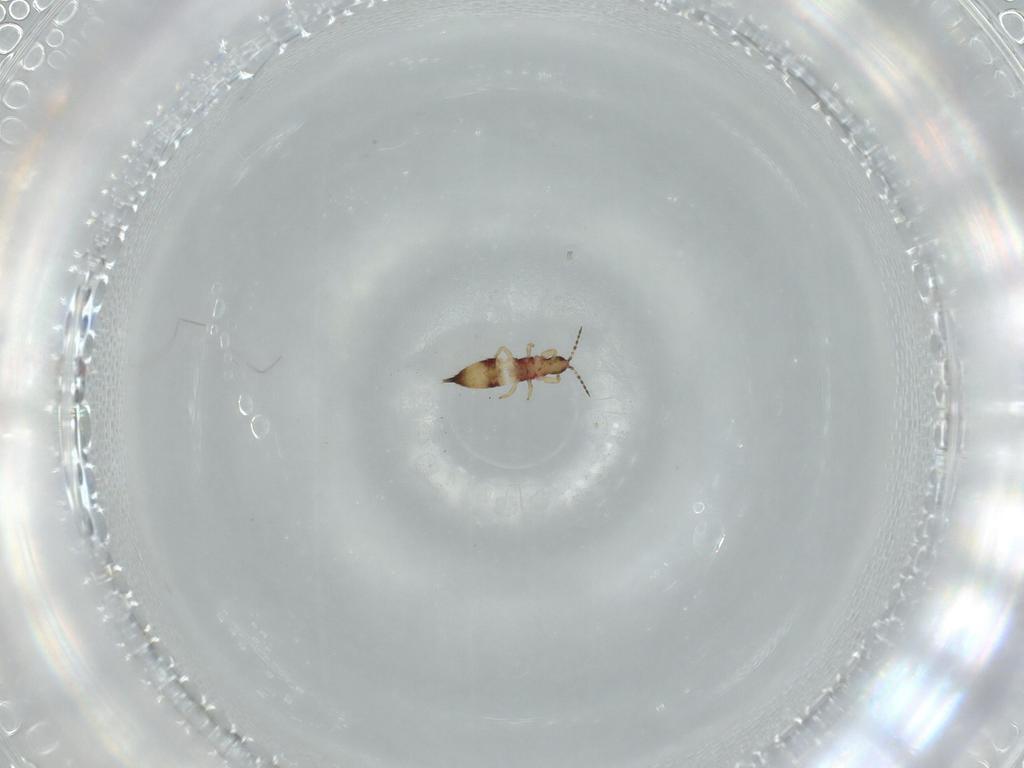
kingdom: Animalia
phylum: Arthropoda
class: Insecta
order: Thysanoptera
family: Phlaeothripidae
